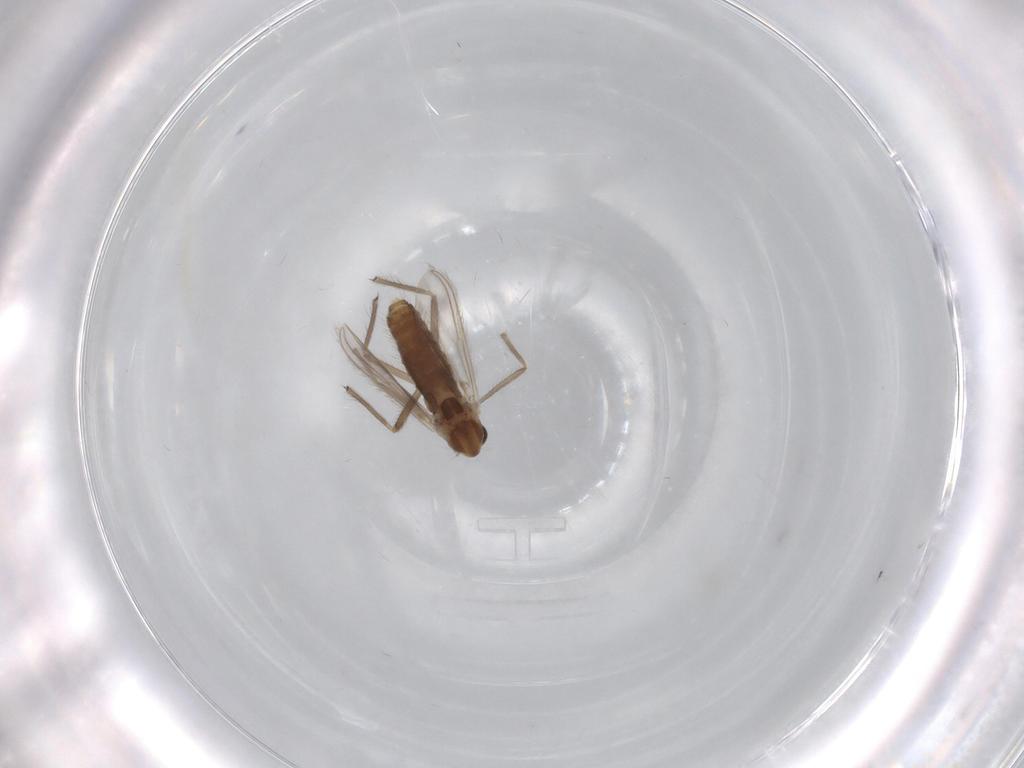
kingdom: Animalia
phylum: Arthropoda
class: Insecta
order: Diptera
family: Chironomidae
